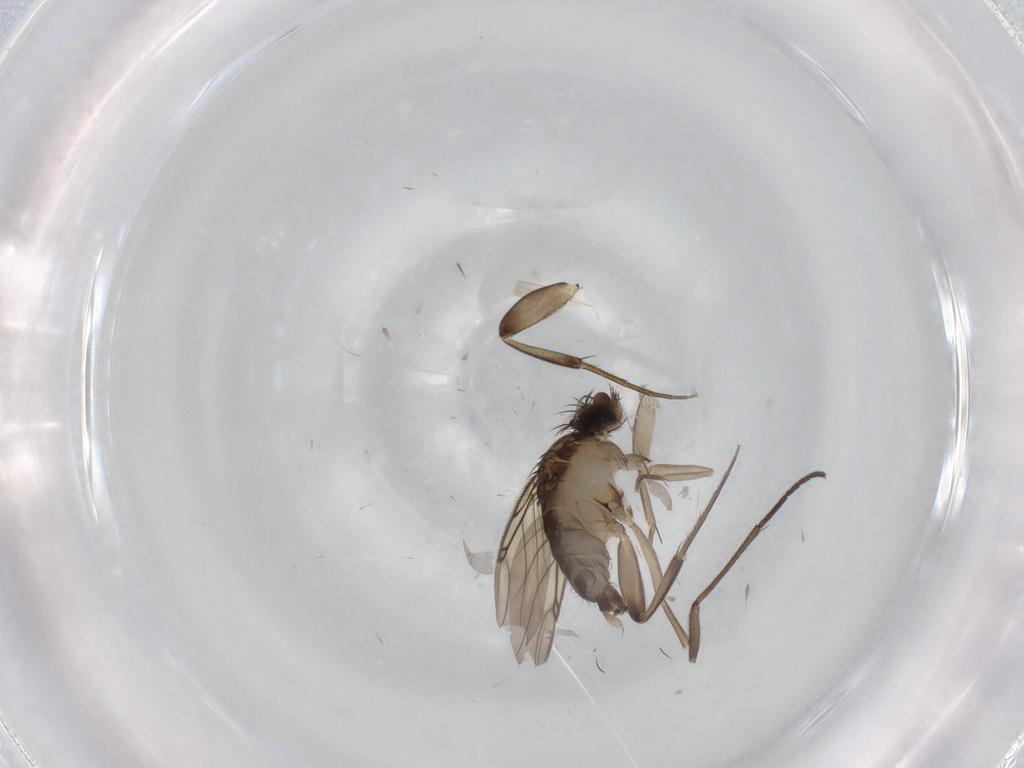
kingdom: Animalia
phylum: Arthropoda
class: Insecta
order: Diptera
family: Phoridae
